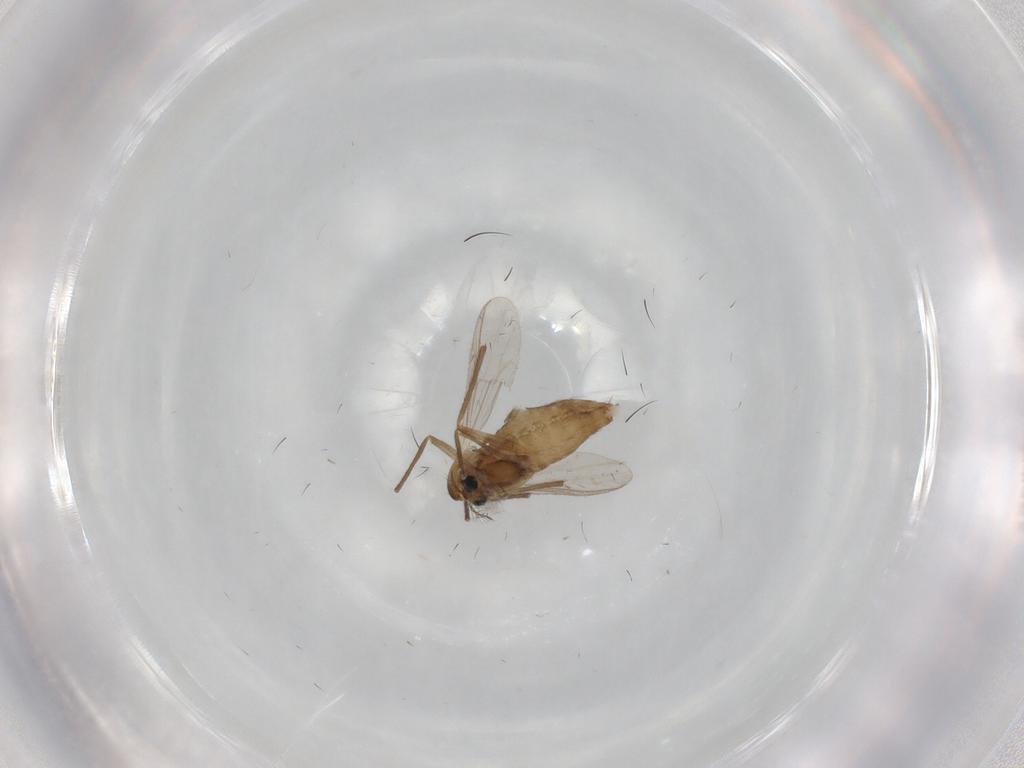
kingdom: Animalia
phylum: Arthropoda
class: Insecta
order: Diptera
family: Chironomidae
